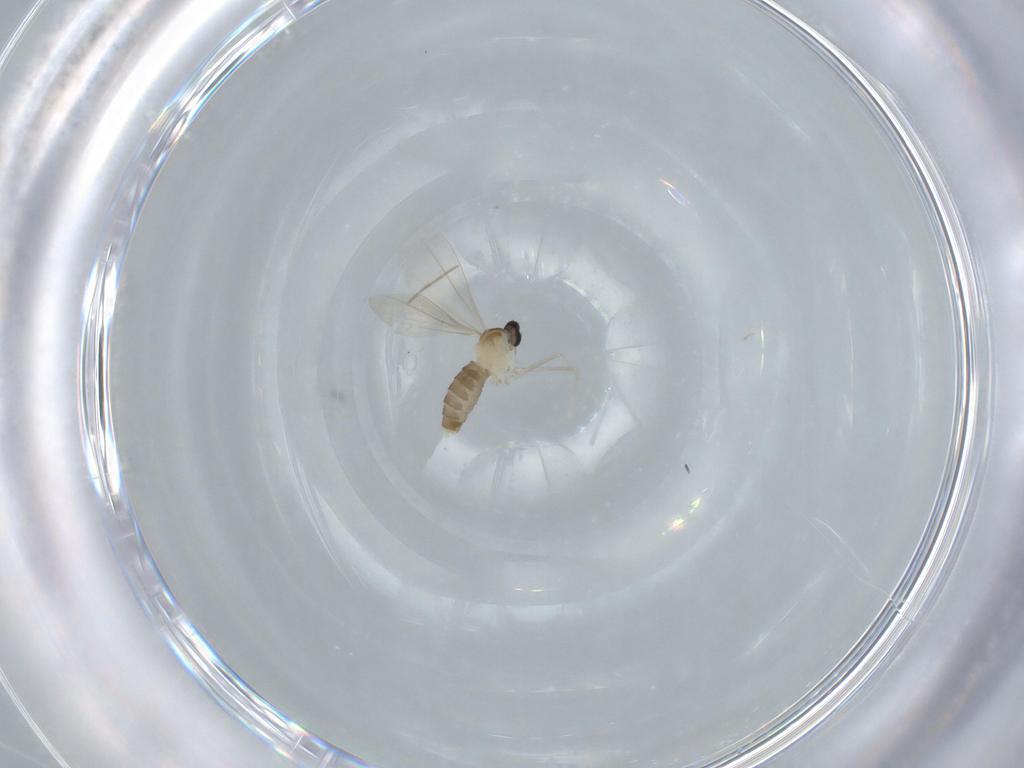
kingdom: Animalia
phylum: Arthropoda
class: Insecta
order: Diptera
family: Cecidomyiidae
